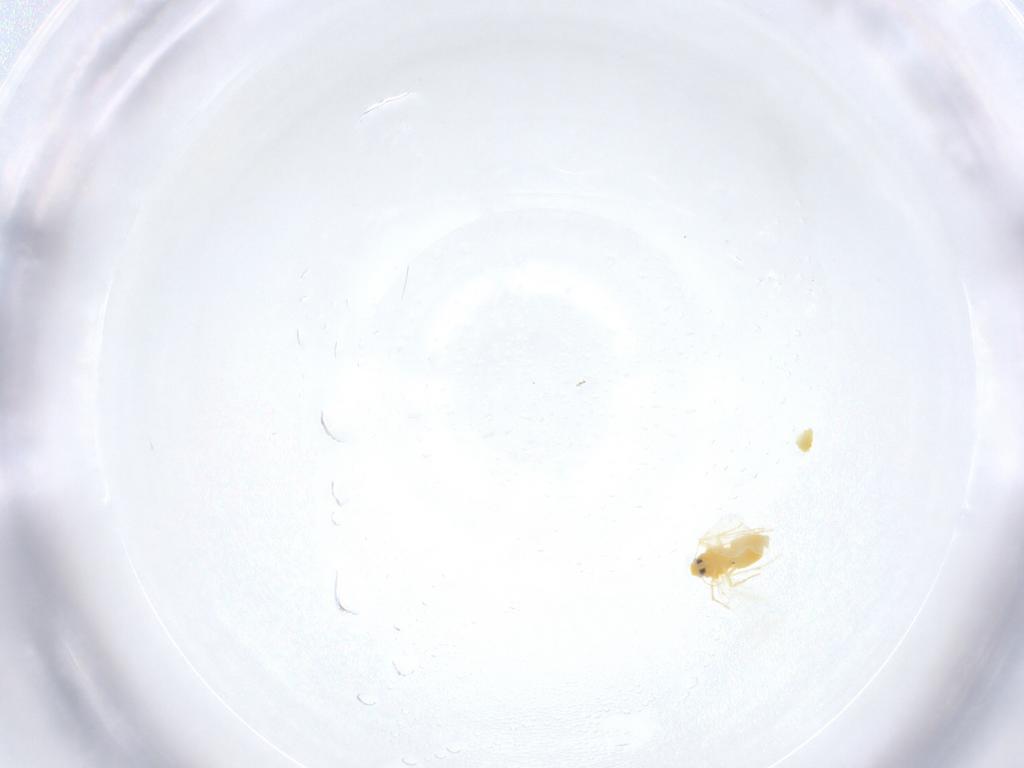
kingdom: Animalia
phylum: Arthropoda
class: Insecta
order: Hemiptera
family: Aleyrodidae
